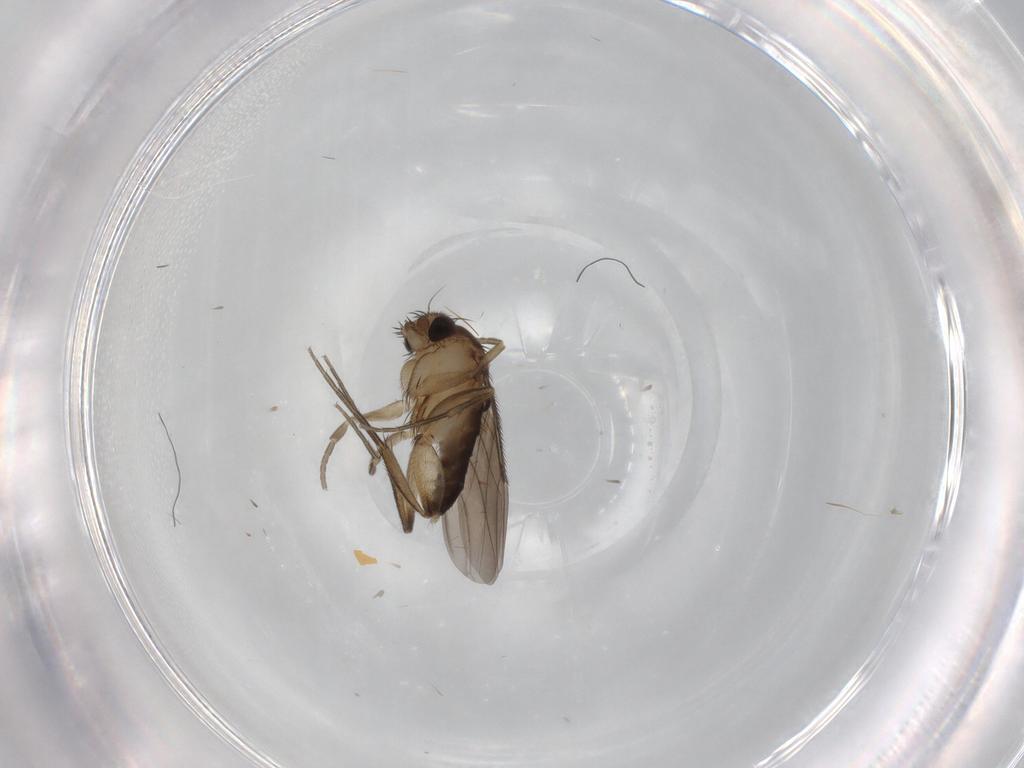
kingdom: Animalia
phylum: Arthropoda
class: Insecta
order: Diptera
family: Phoridae
